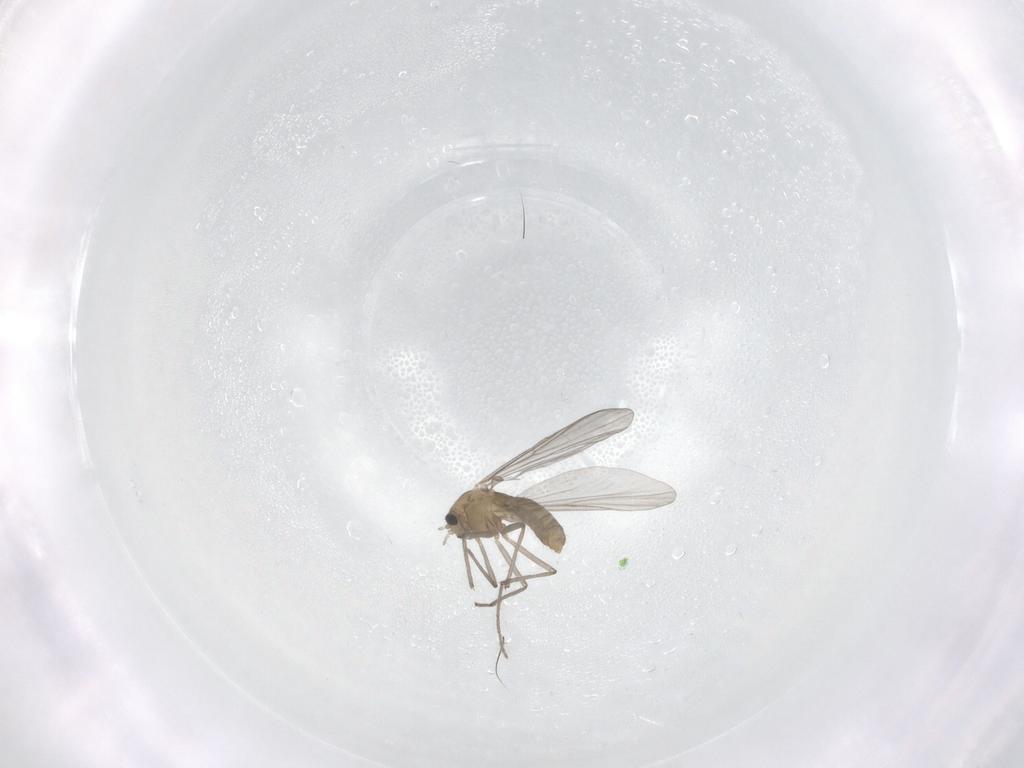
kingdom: Animalia
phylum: Arthropoda
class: Insecta
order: Diptera
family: Chironomidae
